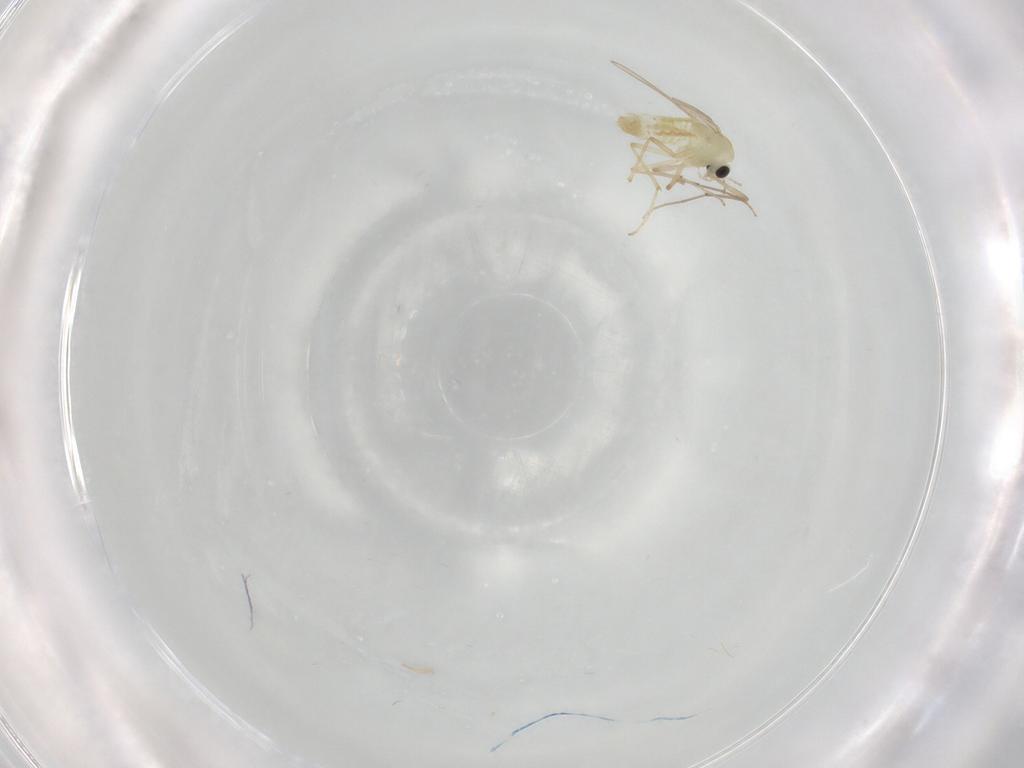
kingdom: Animalia
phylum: Arthropoda
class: Insecta
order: Diptera
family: Chironomidae
